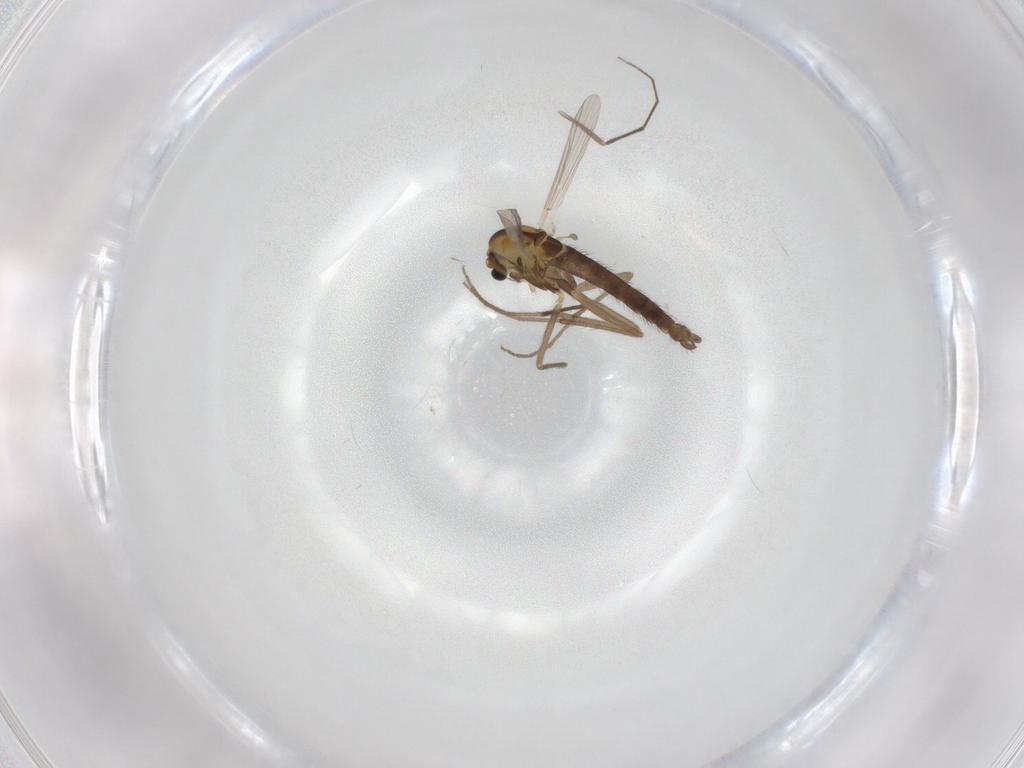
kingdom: Animalia
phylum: Arthropoda
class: Insecta
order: Diptera
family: Chironomidae
